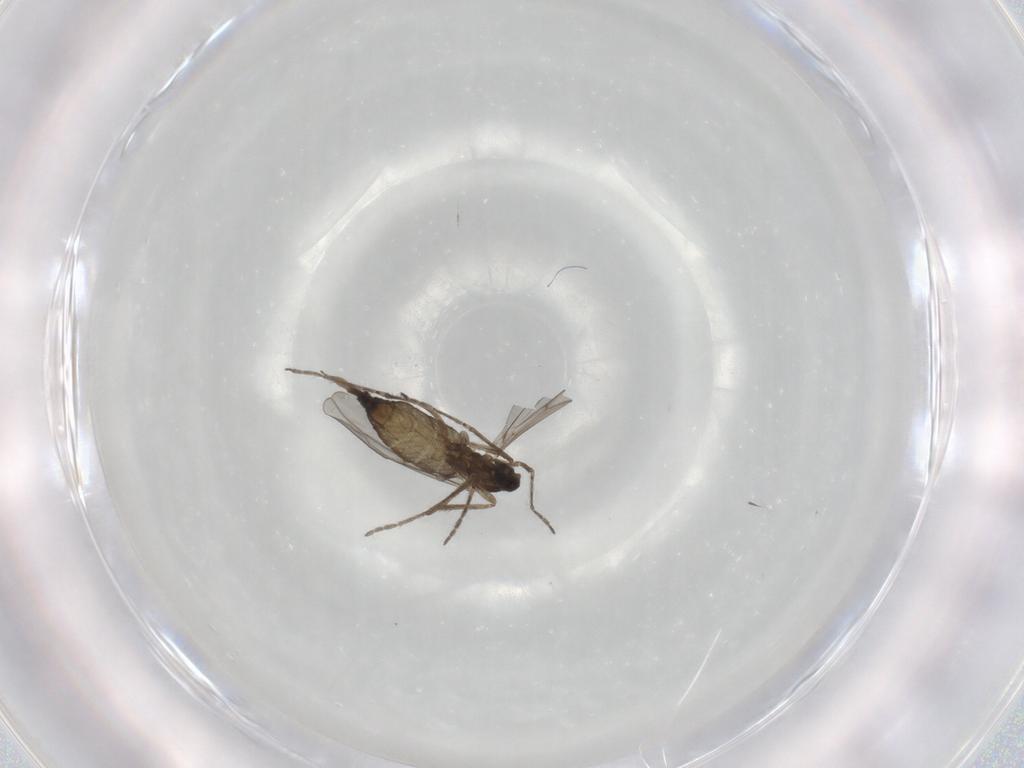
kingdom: Animalia
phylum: Arthropoda
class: Insecta
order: Diptera
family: Cecidomyiidae
